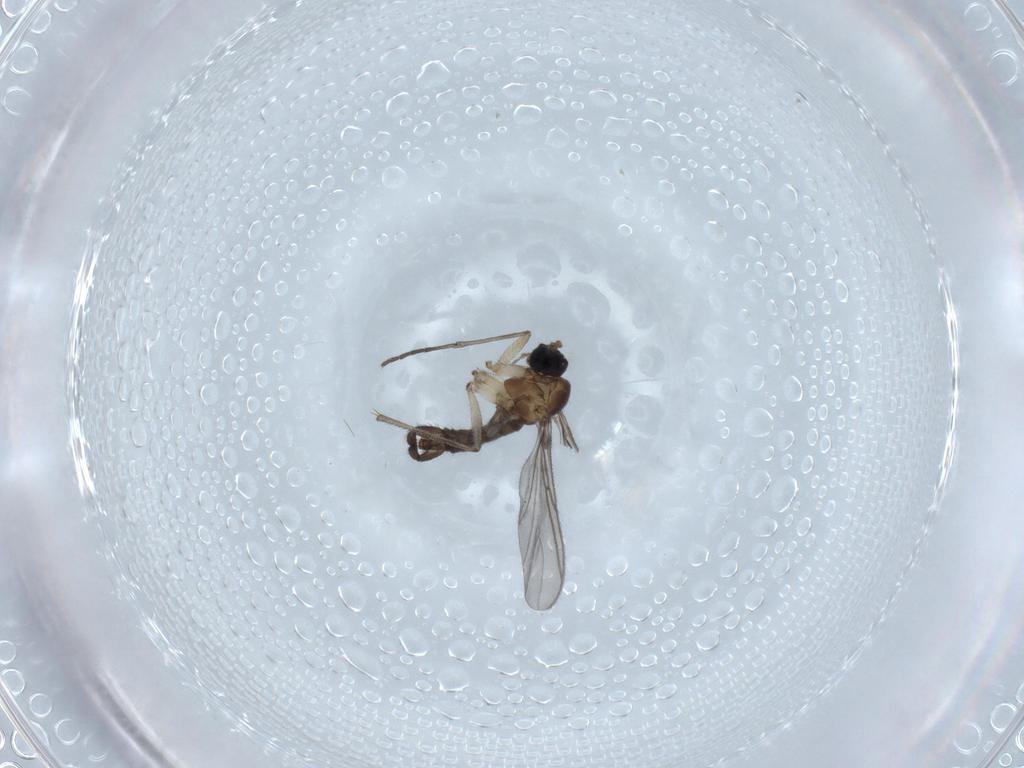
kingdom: Animalia
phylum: Arthropoda
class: Insecta
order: Diptera
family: Sciaridae
